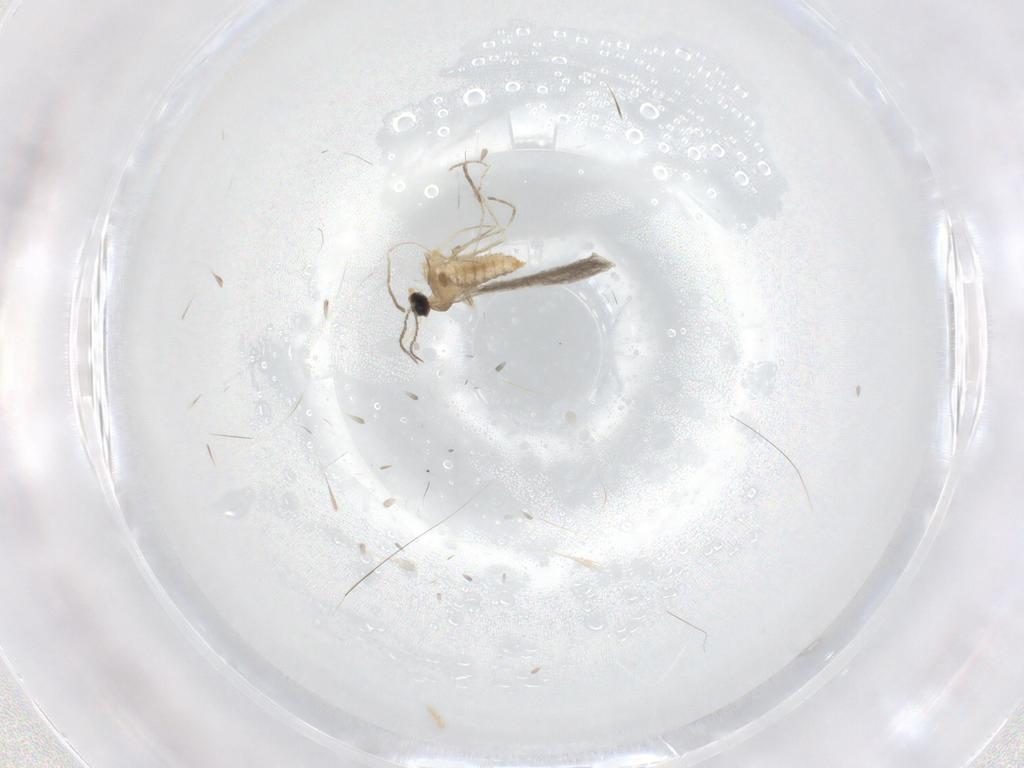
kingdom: Animalia
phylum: Arthropoda
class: Insecta
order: Diptera
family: Cecidomyiidae
